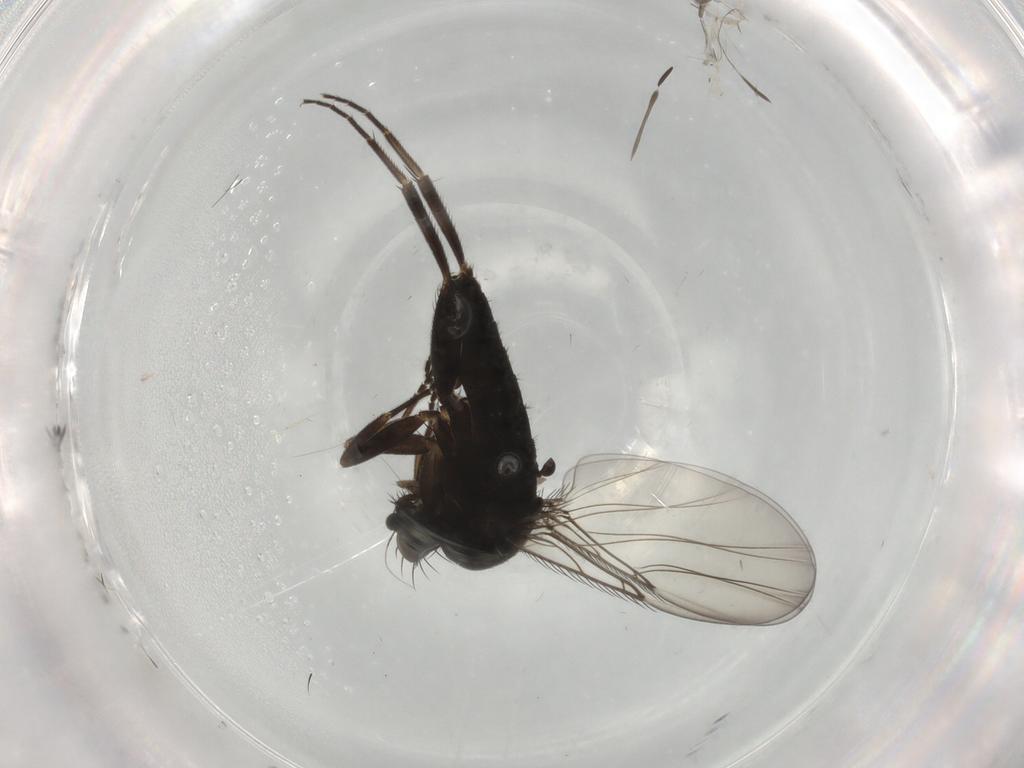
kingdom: Animalia
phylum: Arthropoda
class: Insecta
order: Diptera
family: Phoridae
